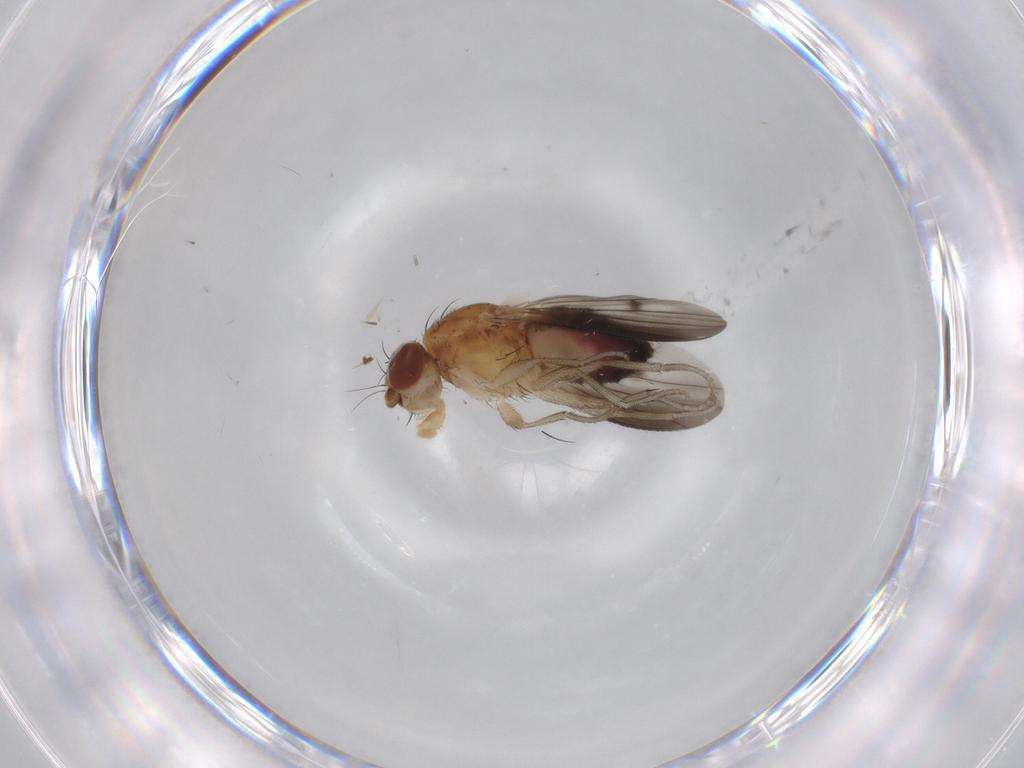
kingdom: Animalia
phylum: Arthropoda
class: Insecta
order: Diptera
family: Heleomyzidae
